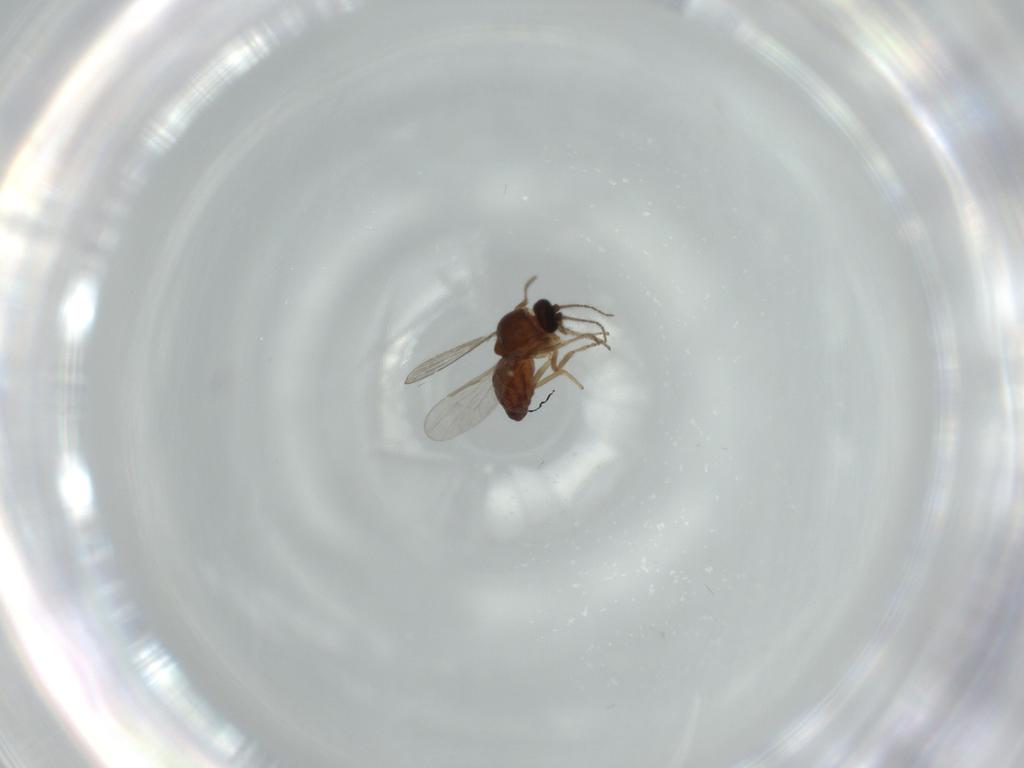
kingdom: Animalia
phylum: Arthropoda
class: Insecta
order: Diptera
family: Ceratopogonidae
